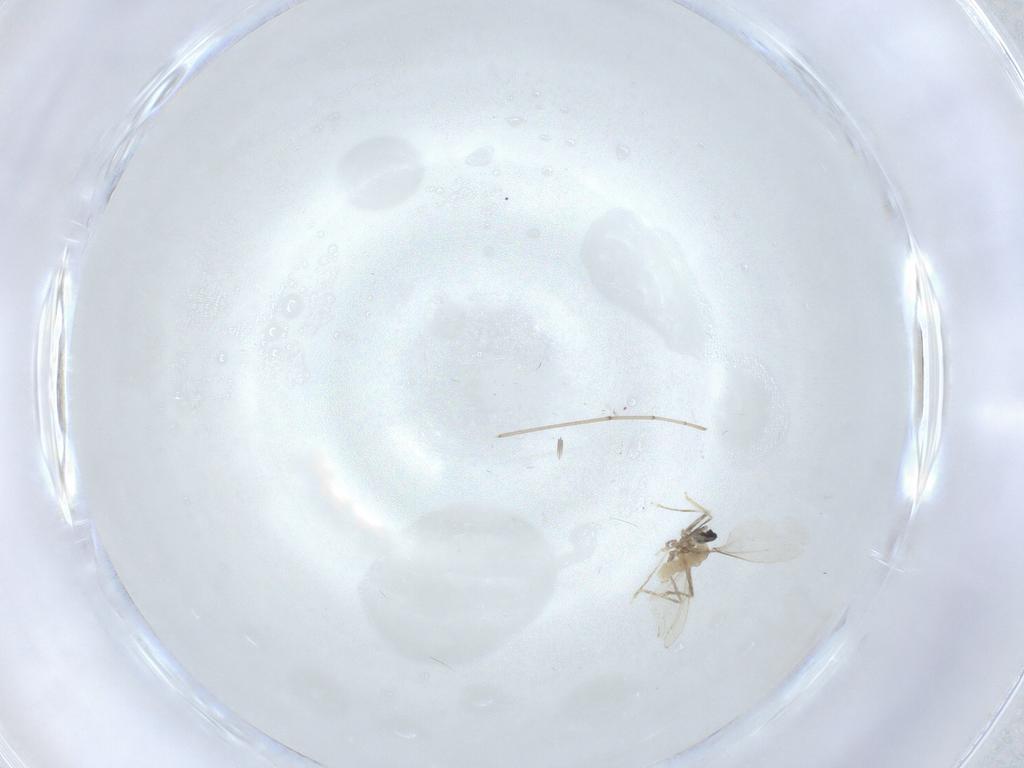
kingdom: Animalia
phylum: Arthropoda
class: Insecta
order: Diptera
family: Cecidomyiidae
